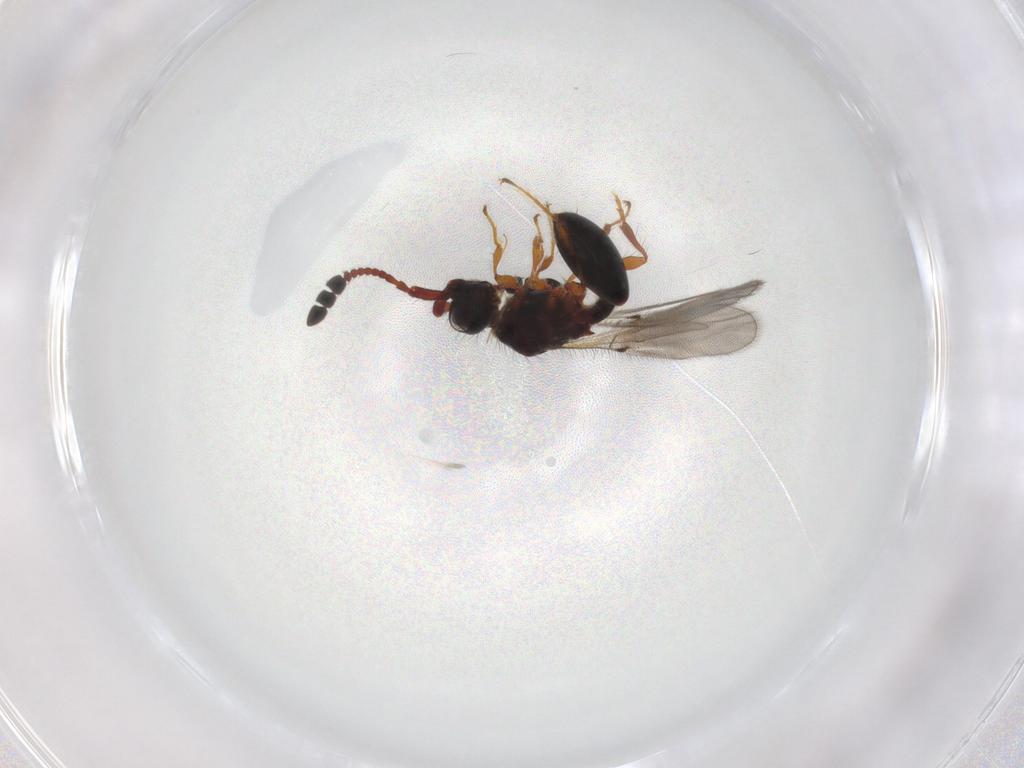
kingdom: Animalia
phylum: Arthropoda
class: Insecta
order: Hymenoptera
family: Diapriidae
